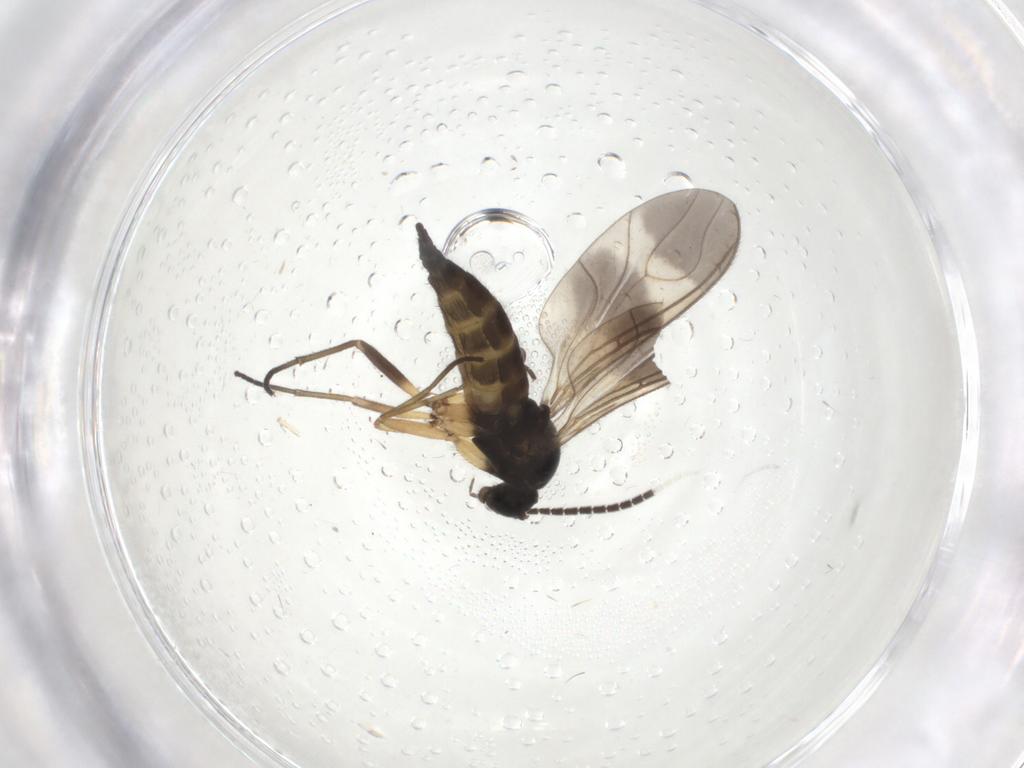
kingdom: Animalia
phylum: Arthropoda
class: Insecta
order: Diptera
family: Sciaridae
